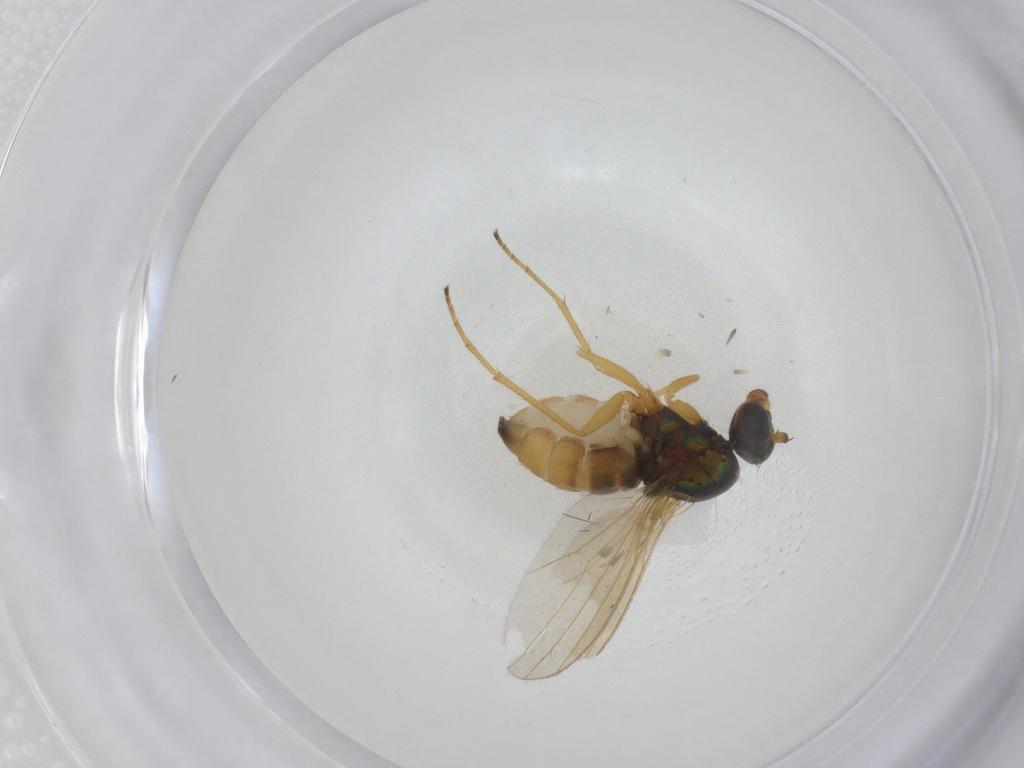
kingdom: Animalia
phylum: Arthropoda
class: Insecta
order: Diptera
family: Dolichopodidae
